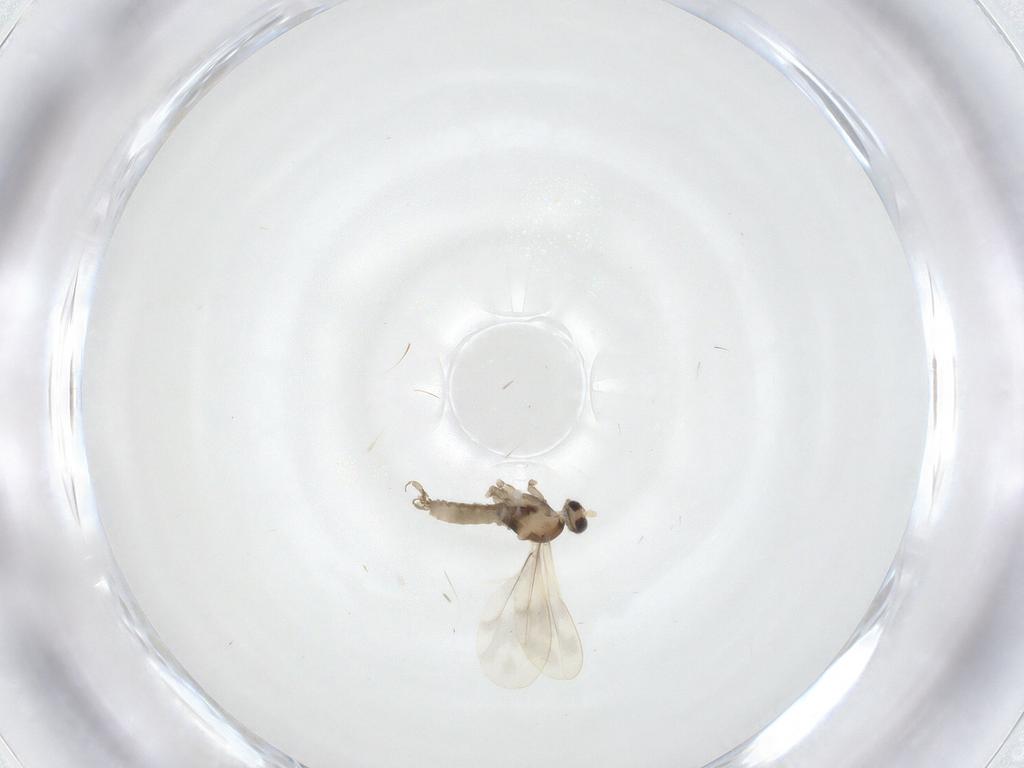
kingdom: Animalia
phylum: Arthropoda
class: Insecta
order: Diptera
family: Cecidomyiidae
